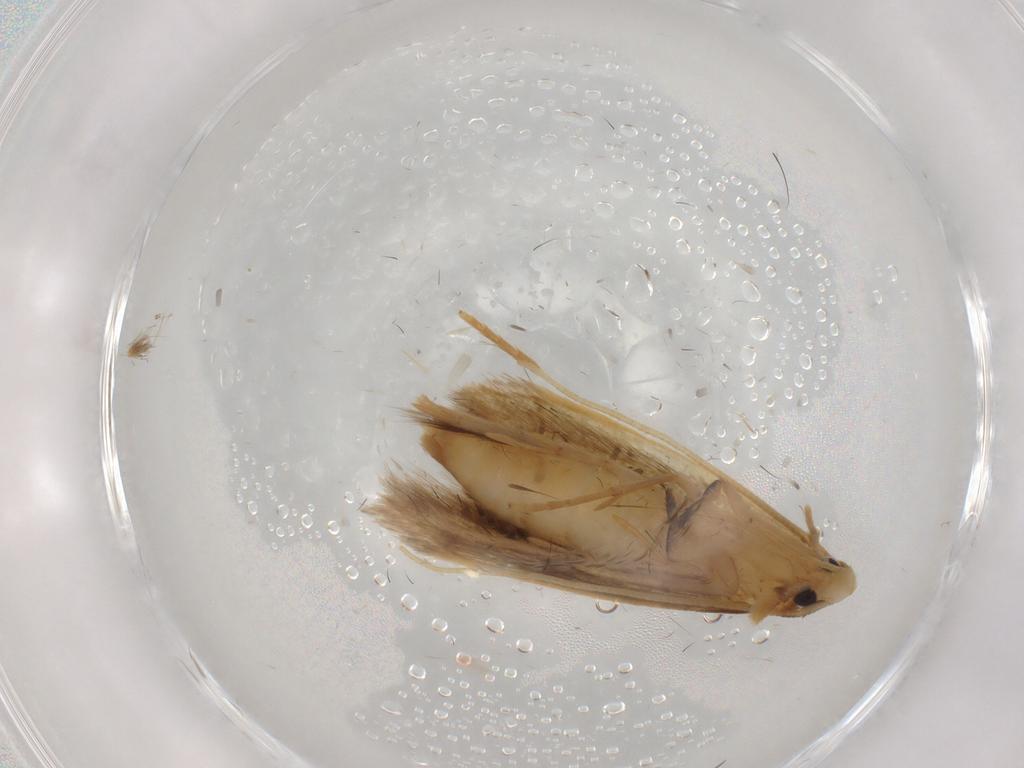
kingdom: Animalia
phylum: Arthropoda
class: Insecta
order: Lepidoptera
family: Tineidae
